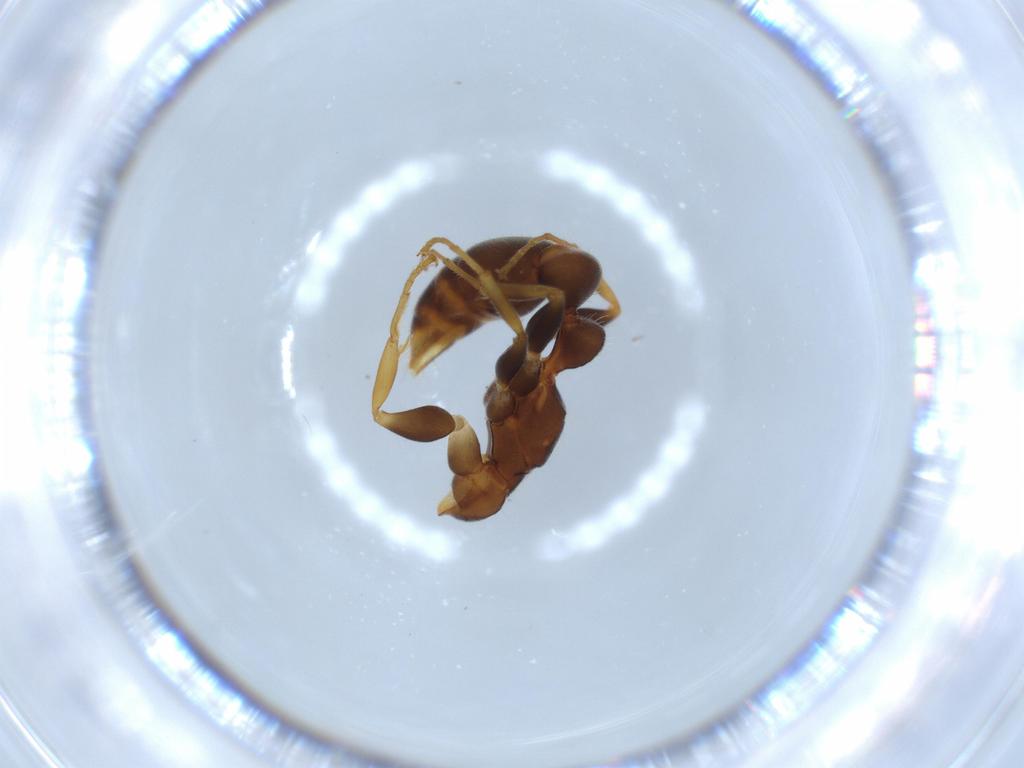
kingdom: Animalia
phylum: Arthropoda
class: Insecta
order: Hymenoptera
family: Formicidae
